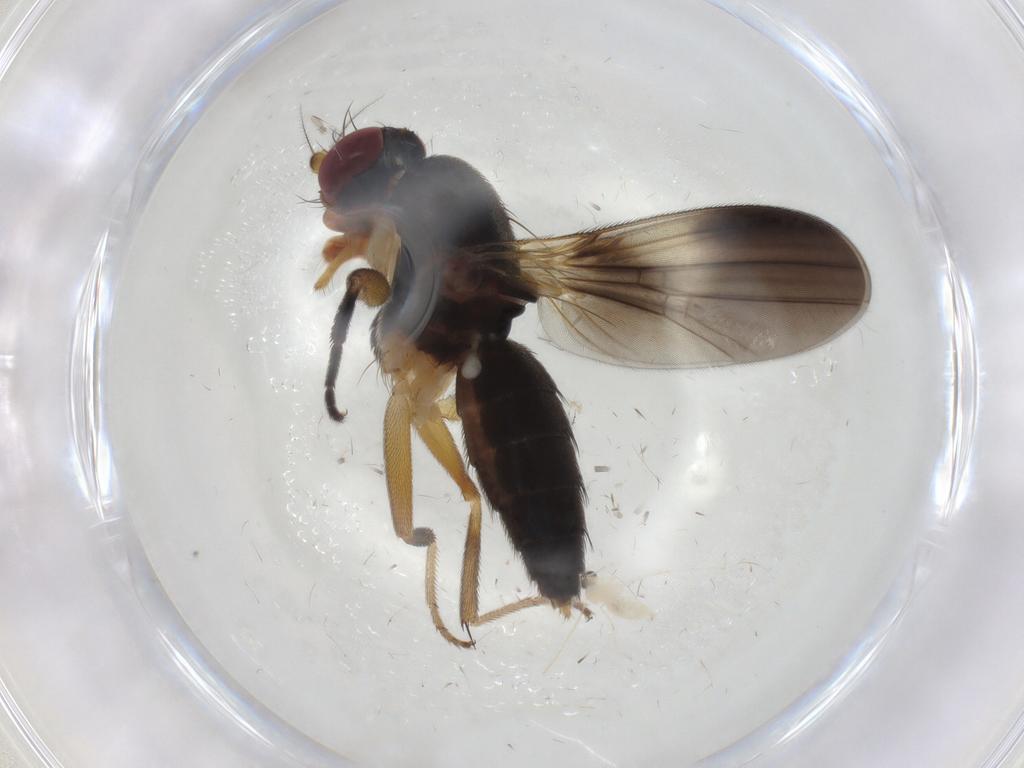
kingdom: Animalia
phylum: Arthropoda
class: Insecta
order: Diptera
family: Clusiidae
